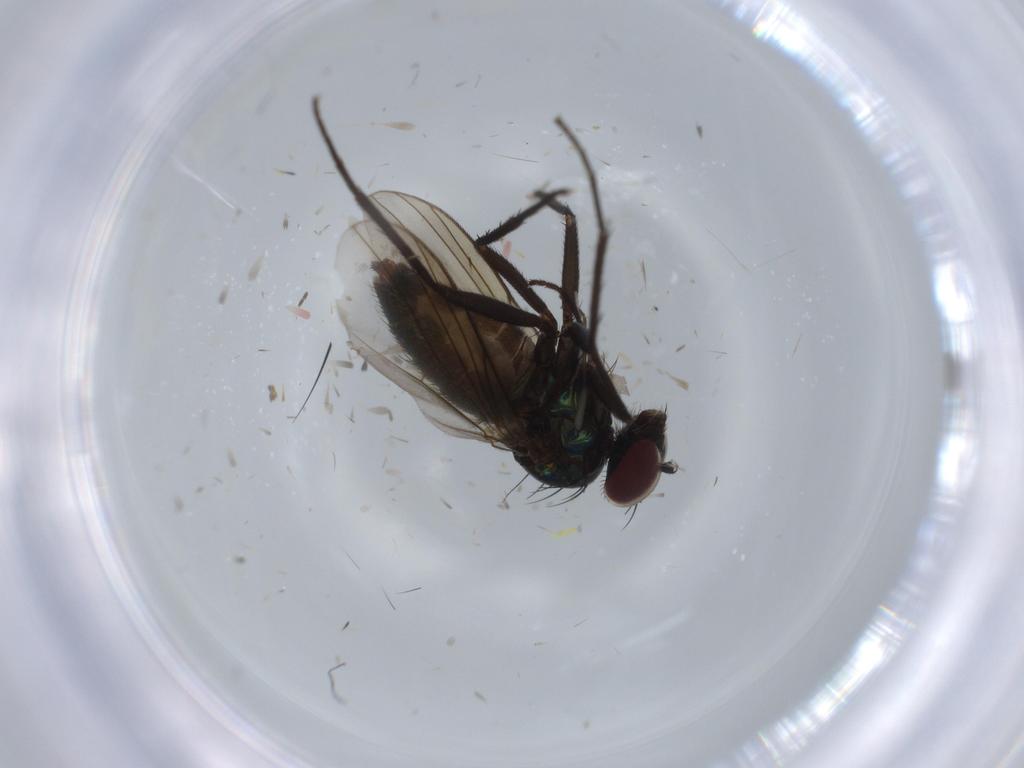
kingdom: Animalia
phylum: Arthropoda
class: Insecta
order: Diptera
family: Dolichopodidae
